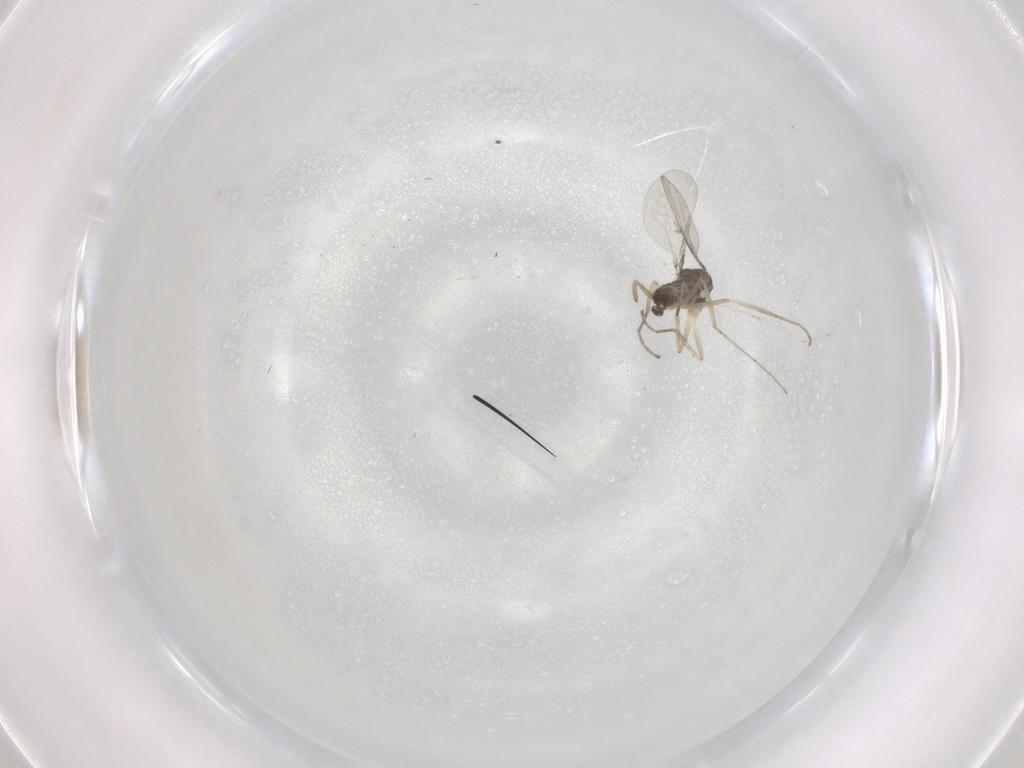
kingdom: Animalia
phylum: Arthropoda
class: Insecta
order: Diptera
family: Cecidomyiidae
